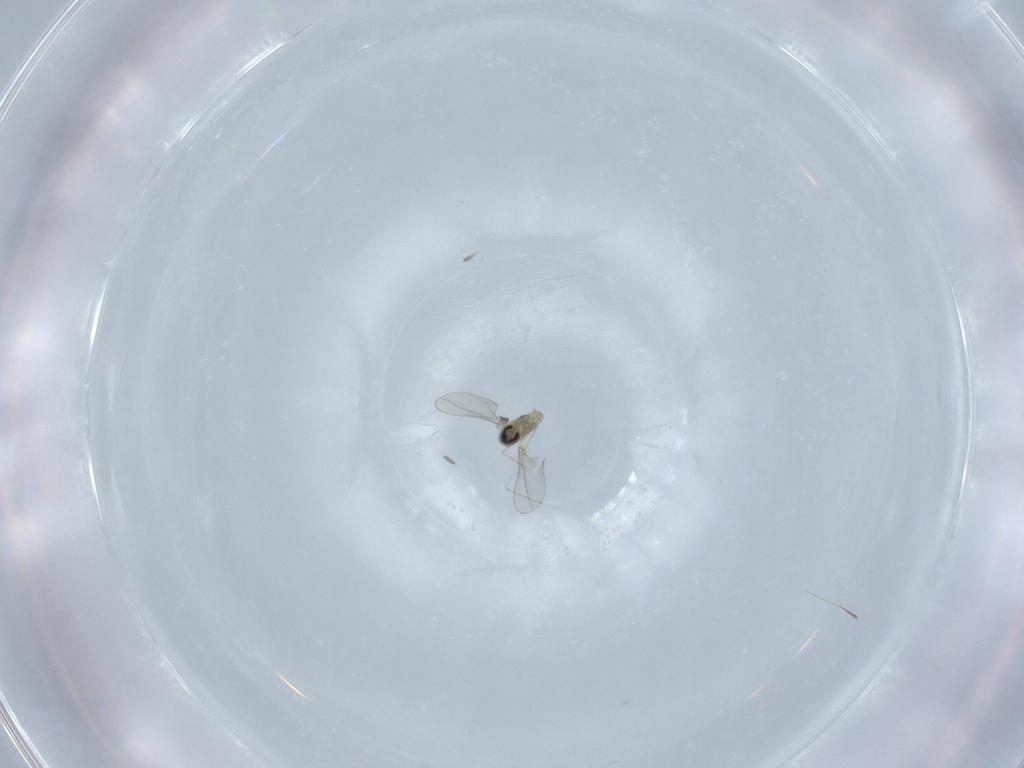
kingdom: Animalia
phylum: Arthropoda
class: Insecta
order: Diptera
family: Cecidomyiidae
